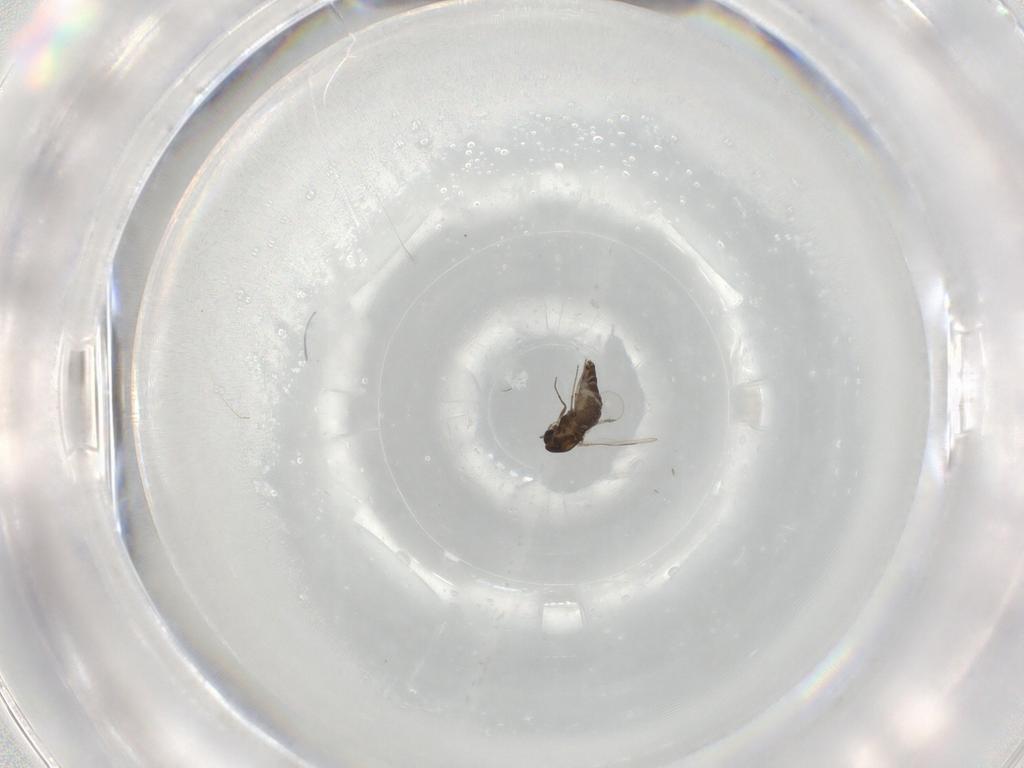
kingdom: Animalia
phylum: Arthropoda
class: Insecta
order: Diptera
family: Chironomidae
